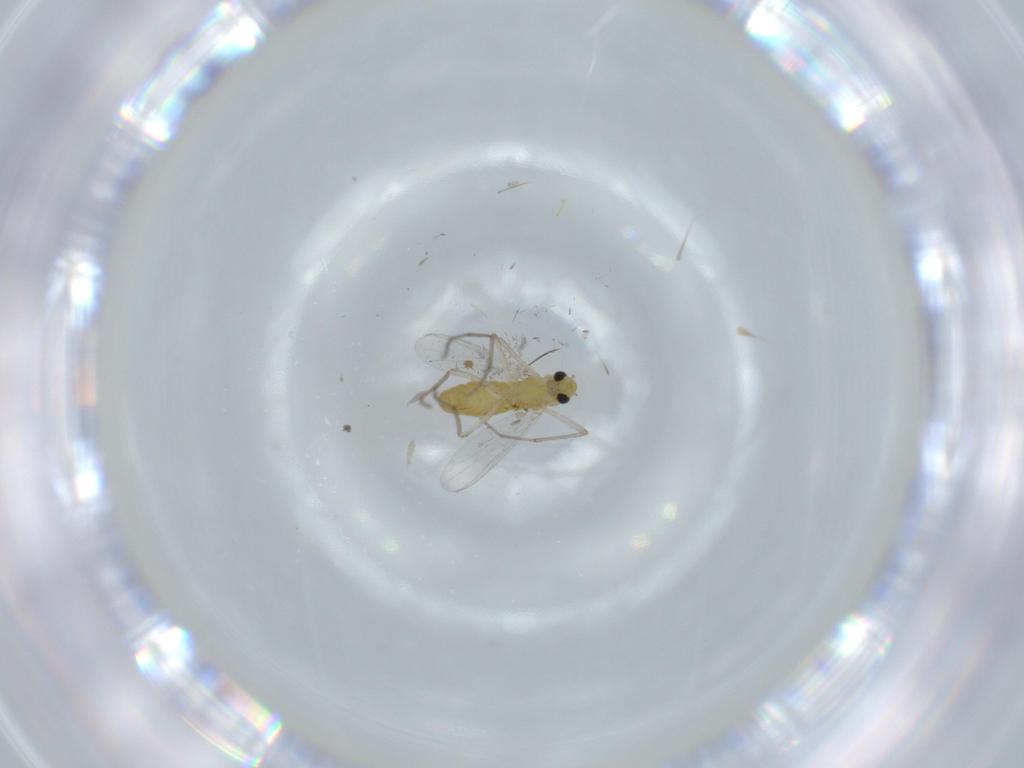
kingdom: Animalia
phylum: Arthropoda
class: Insecta
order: Diptera
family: Chironomidae
